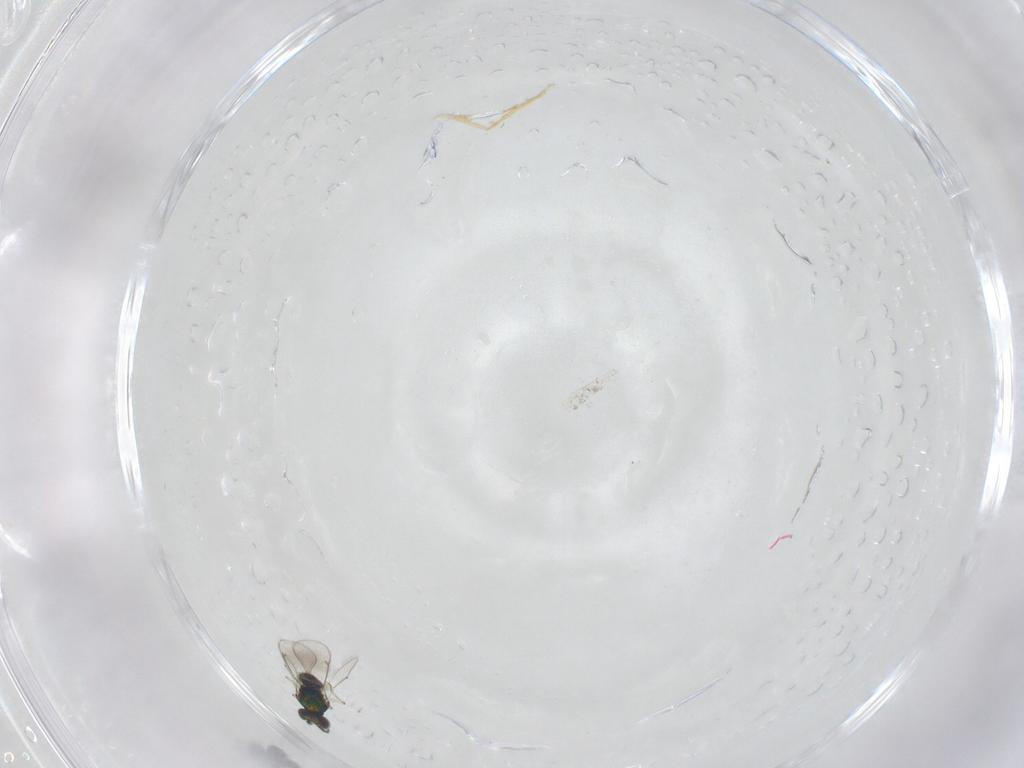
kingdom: Animalia
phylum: Arthropoda
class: Insecta
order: Hymenoptera
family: Eulophidae
